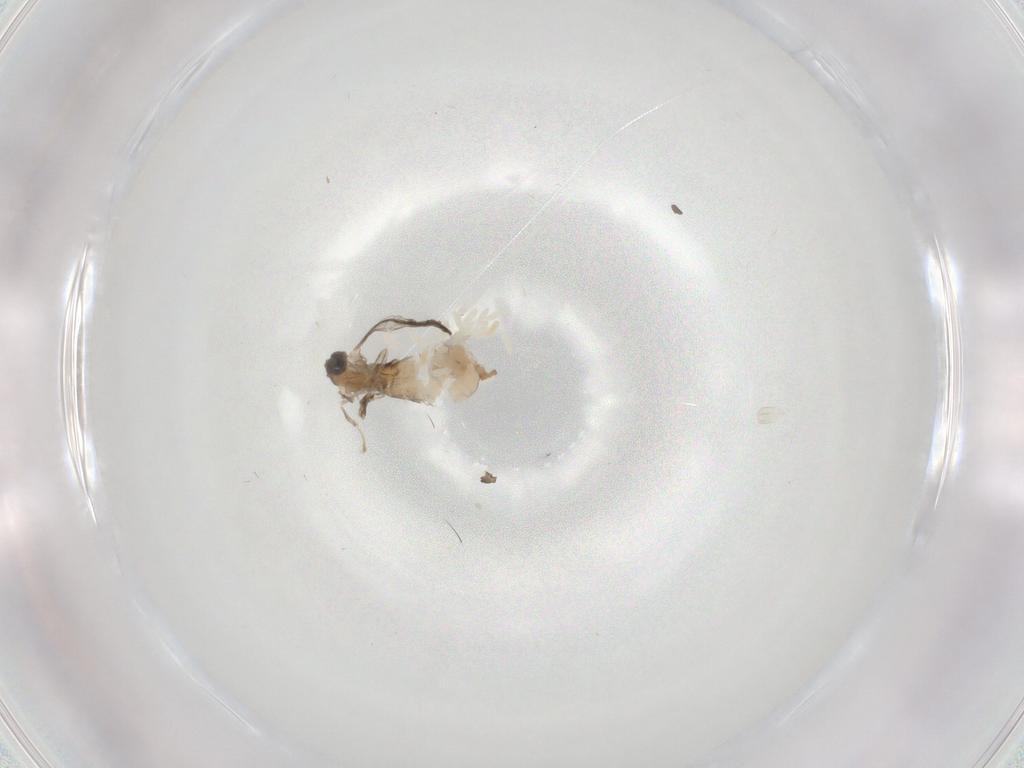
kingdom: Animalia
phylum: Arthropoda
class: Insecta
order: Diptera
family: Cecidomyiidae
